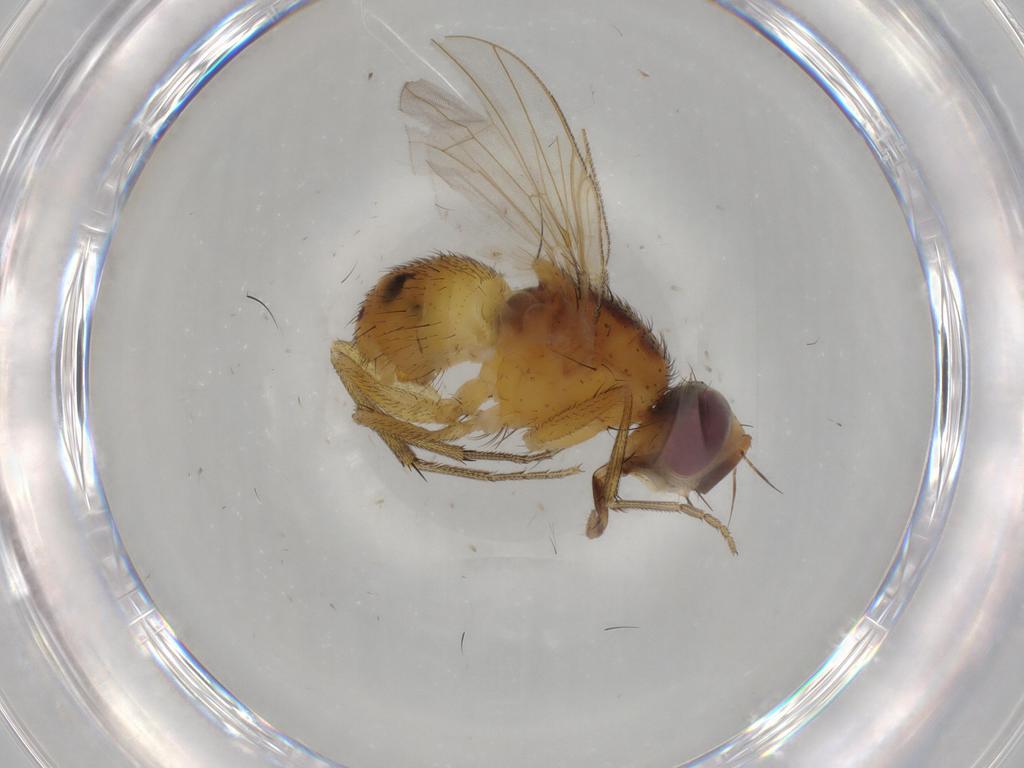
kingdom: Animalia
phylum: Arthropoda
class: Insecta
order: Diptera
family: Muscidae
